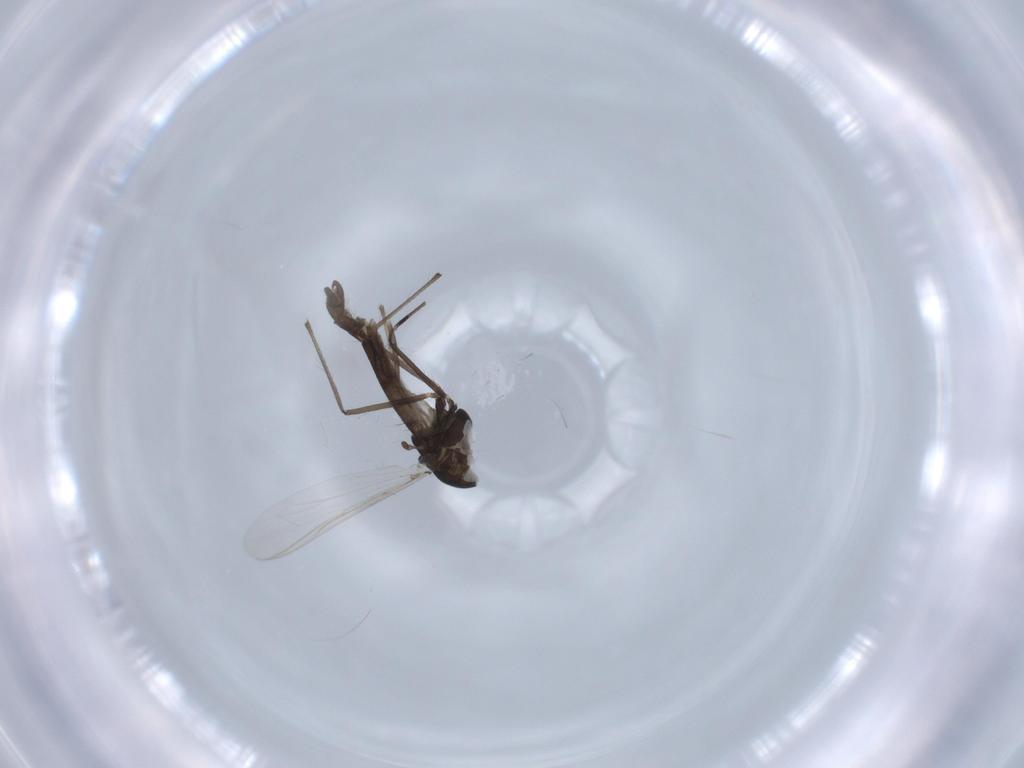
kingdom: Animalia
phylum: Arthropoda
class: Insecta
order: Diptera
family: Chironomidae
